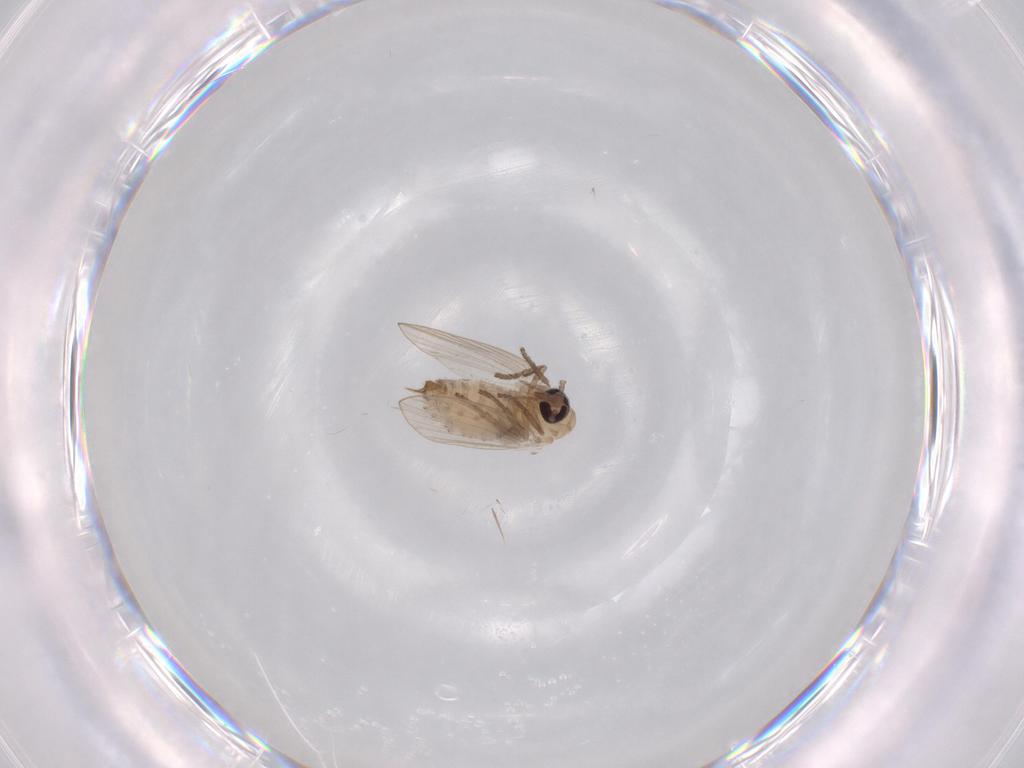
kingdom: Animalia
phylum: Arthropoda
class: Insecta
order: Diptera
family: Psychodidae
